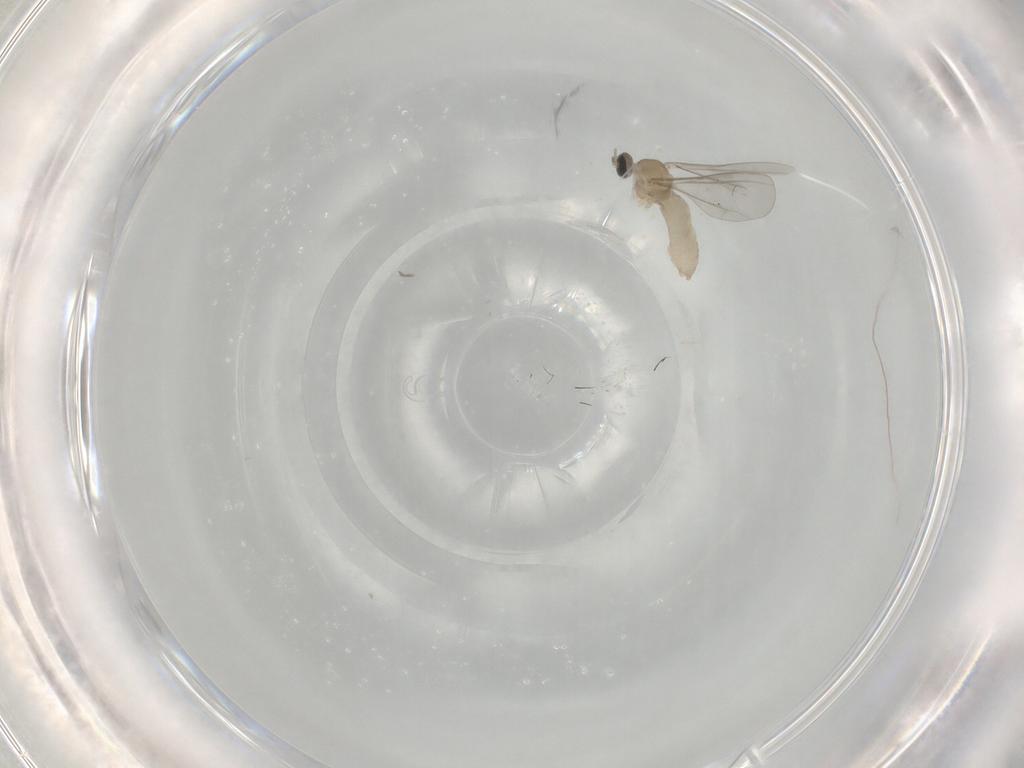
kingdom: Animalia
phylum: Arthropoda
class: Insecta
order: Diptera
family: Cecidomyiidae
